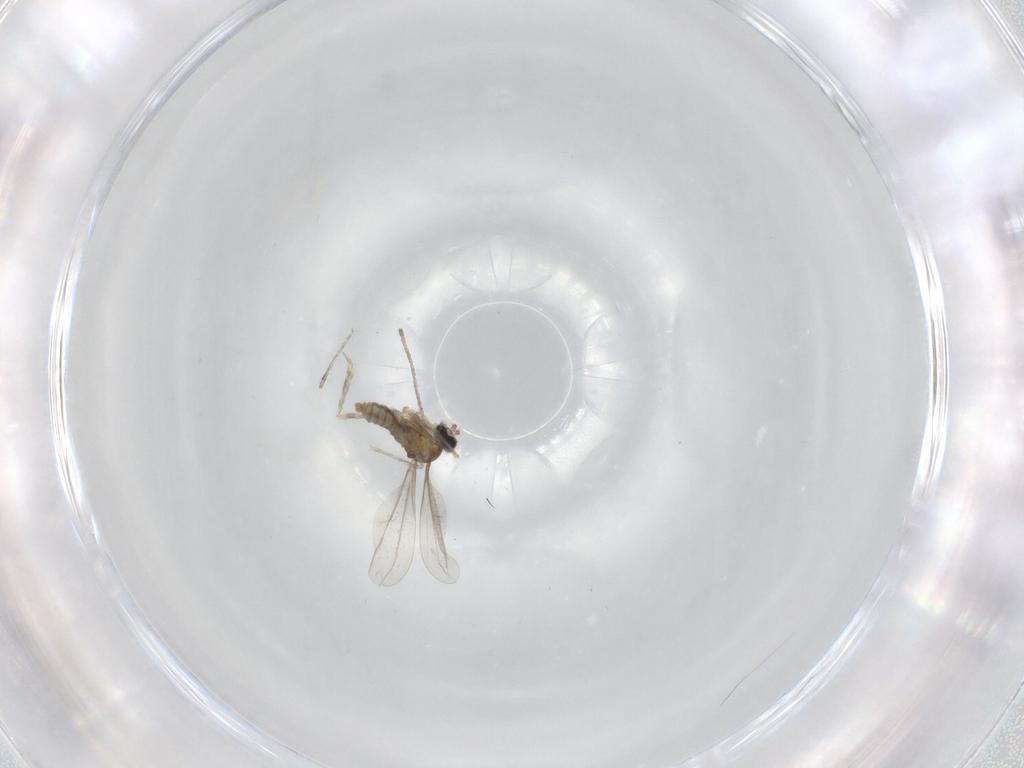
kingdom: Animalia
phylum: Arthropoda
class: Insecta
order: Diptera
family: Cecidomyiidae
